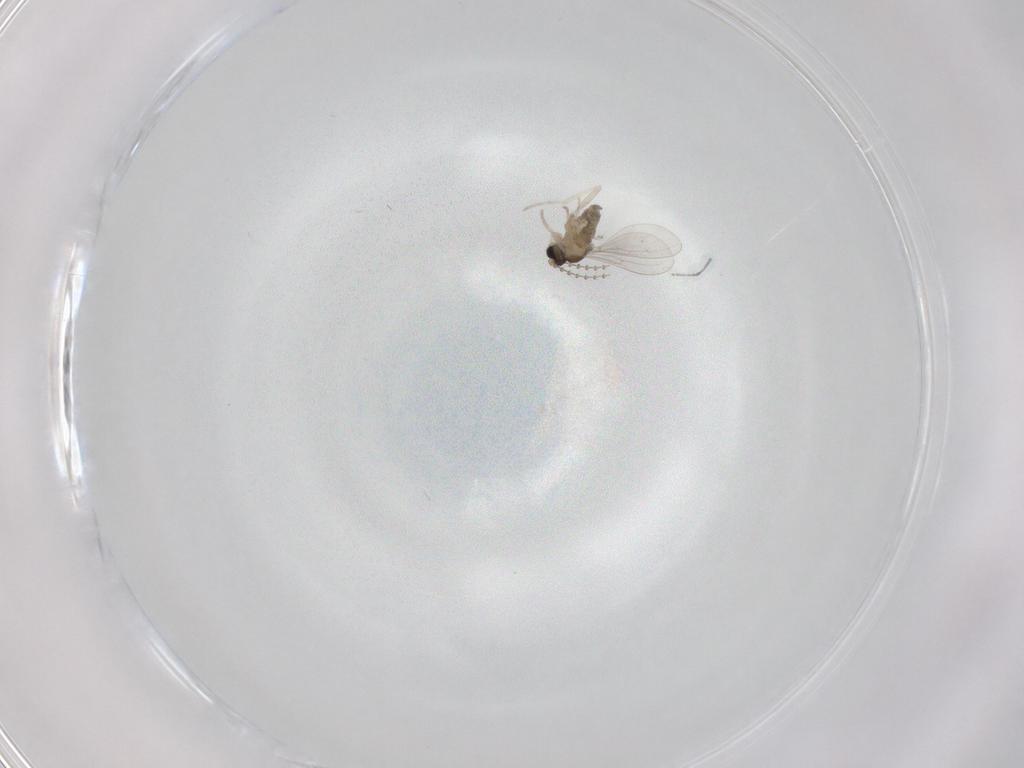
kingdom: Animalia
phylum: Arthropoda
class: Insecta
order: Diptera
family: Cecidomyiidae
